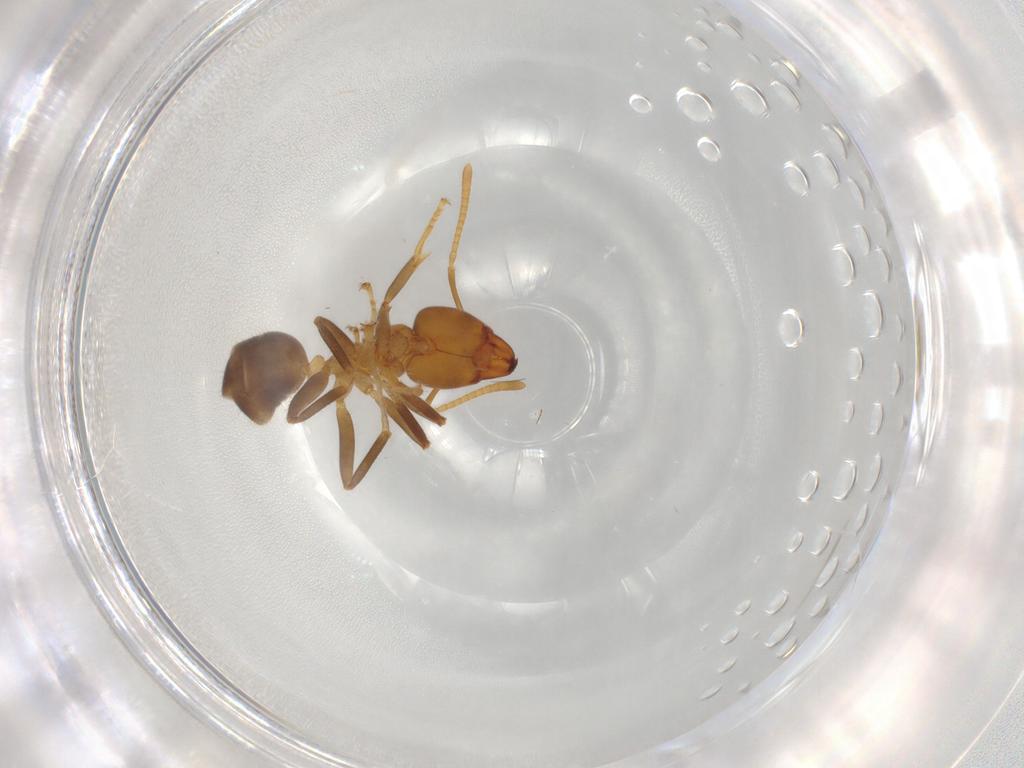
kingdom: Animalia
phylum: Arthropoda
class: Insecta
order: Hymenoptera
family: Formicidae
